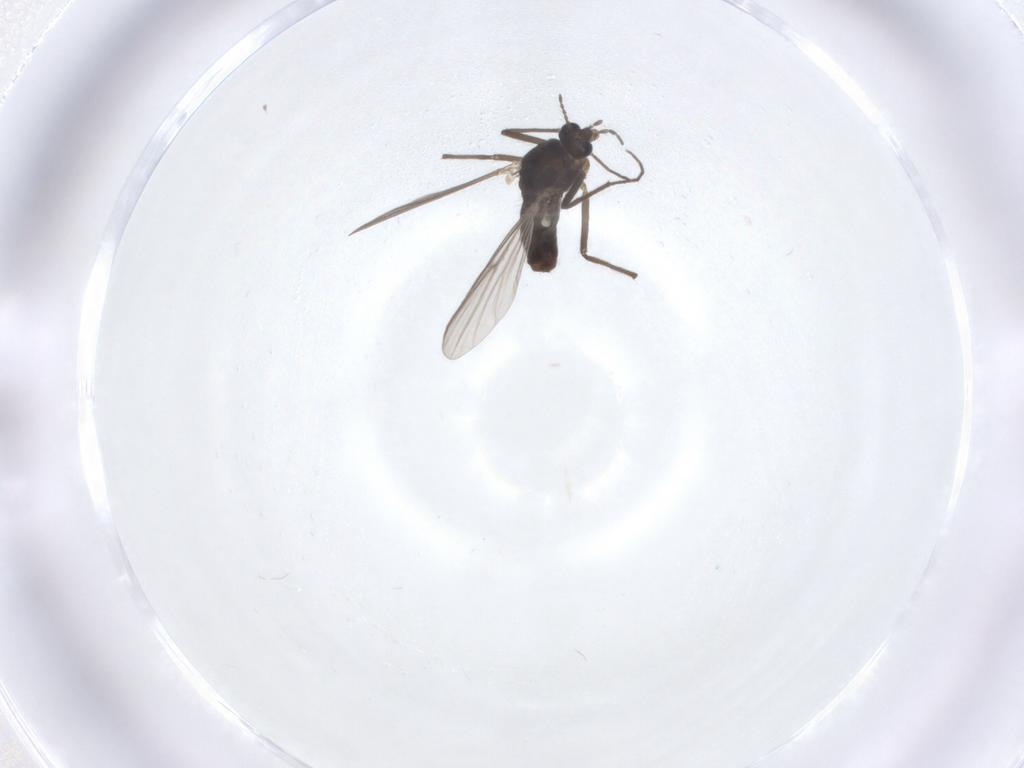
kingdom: Animalia
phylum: Arthropoda
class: Insecta
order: Diptera
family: Chironomidae
